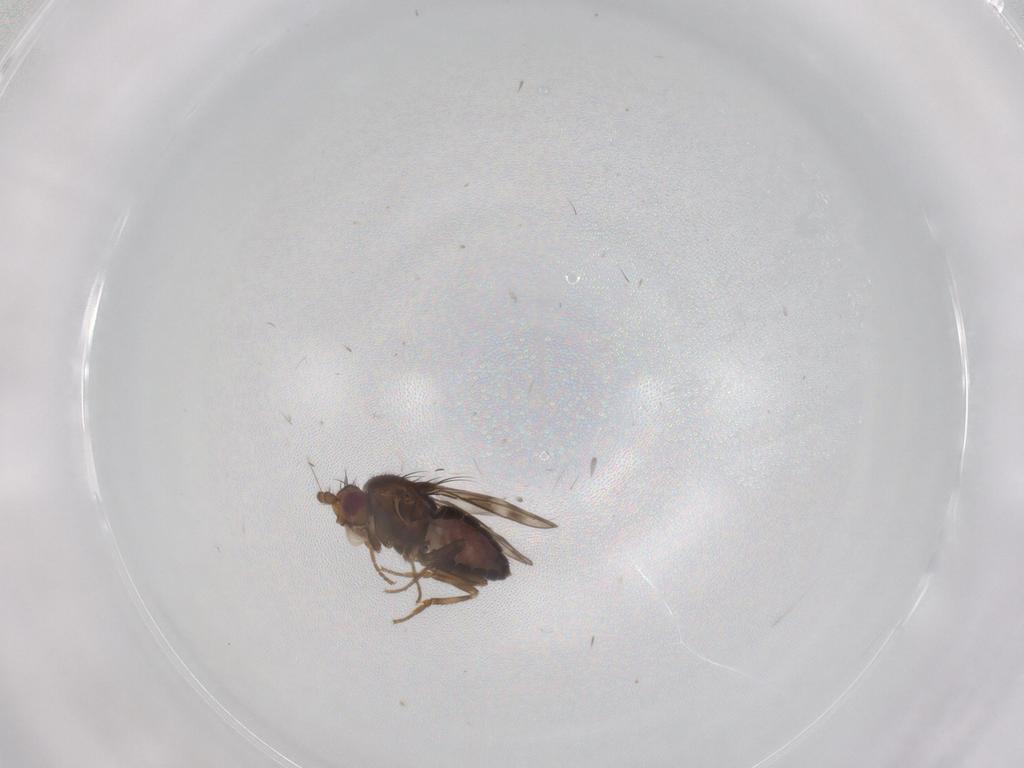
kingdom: Animalia
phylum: Arthropoda
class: Insecta
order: Diptera
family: Sphaeroceridae
